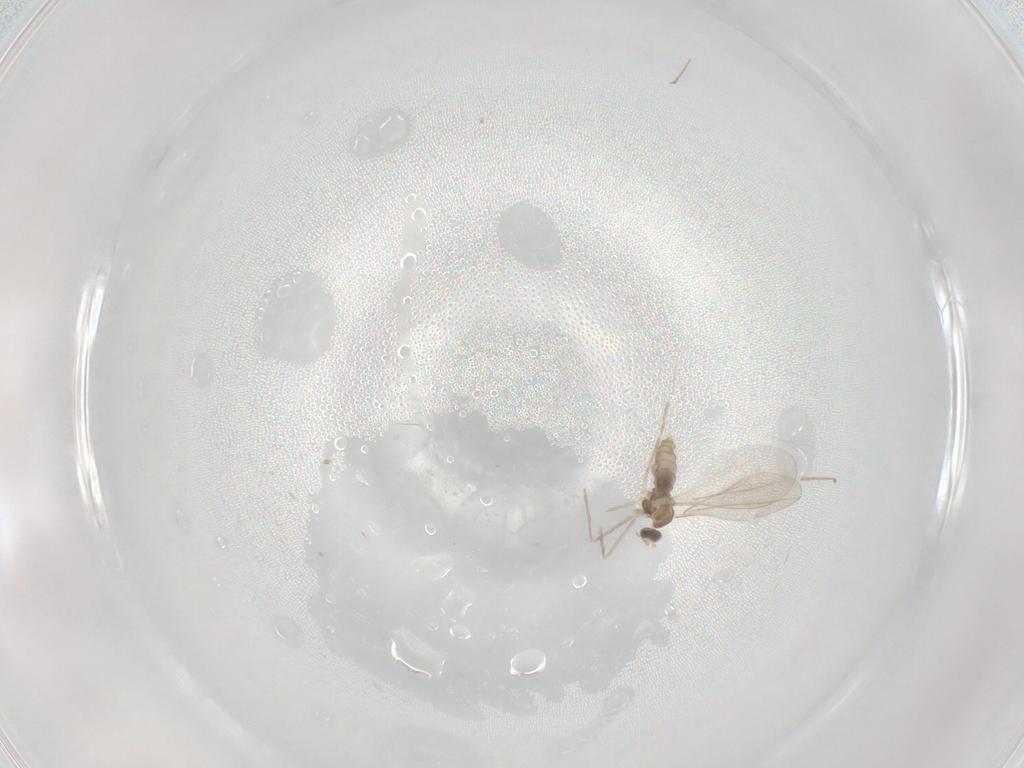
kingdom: Animalia
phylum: Arthropoda
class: Insecta
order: Diptera
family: Cecidomyiidae
